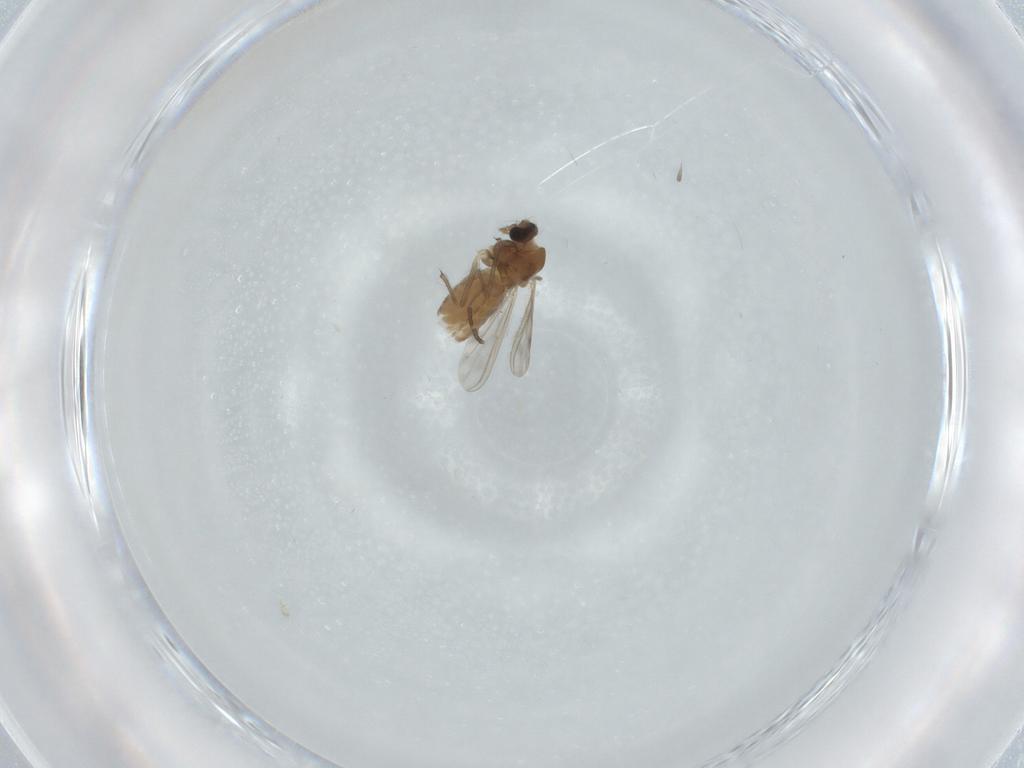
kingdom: Animalia
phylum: Arthropoda
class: Insecta
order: Diptera
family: Chironomidae
